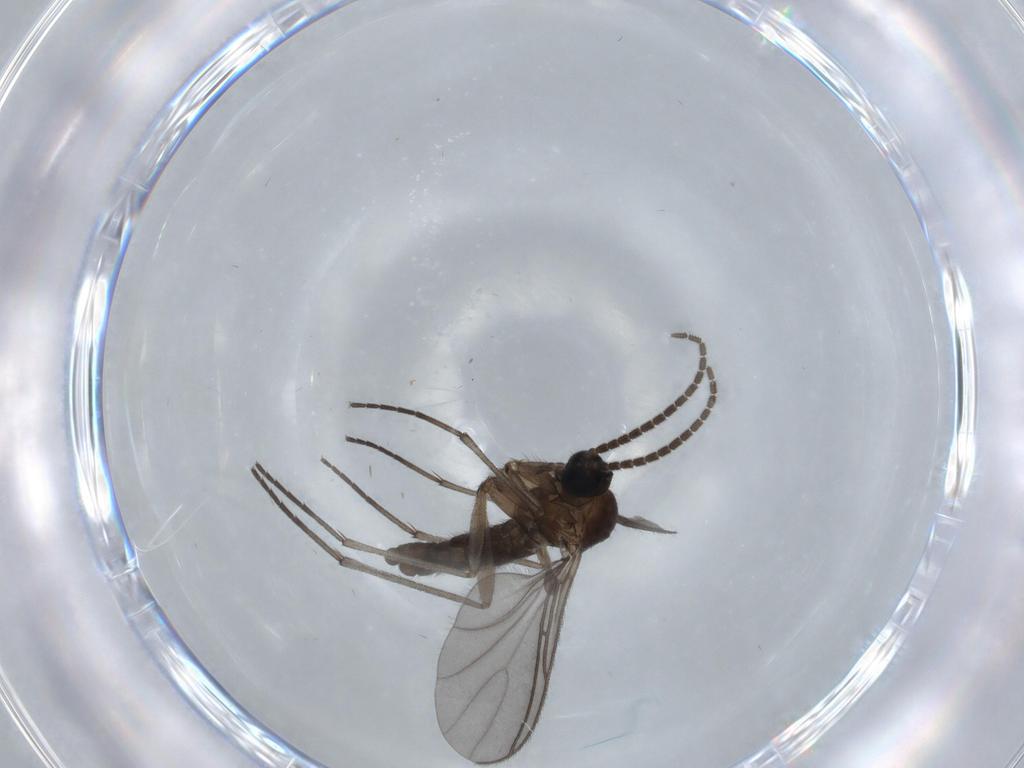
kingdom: Animalia
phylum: Arthropoda
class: Insecta
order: Diptera
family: Sciaridae
